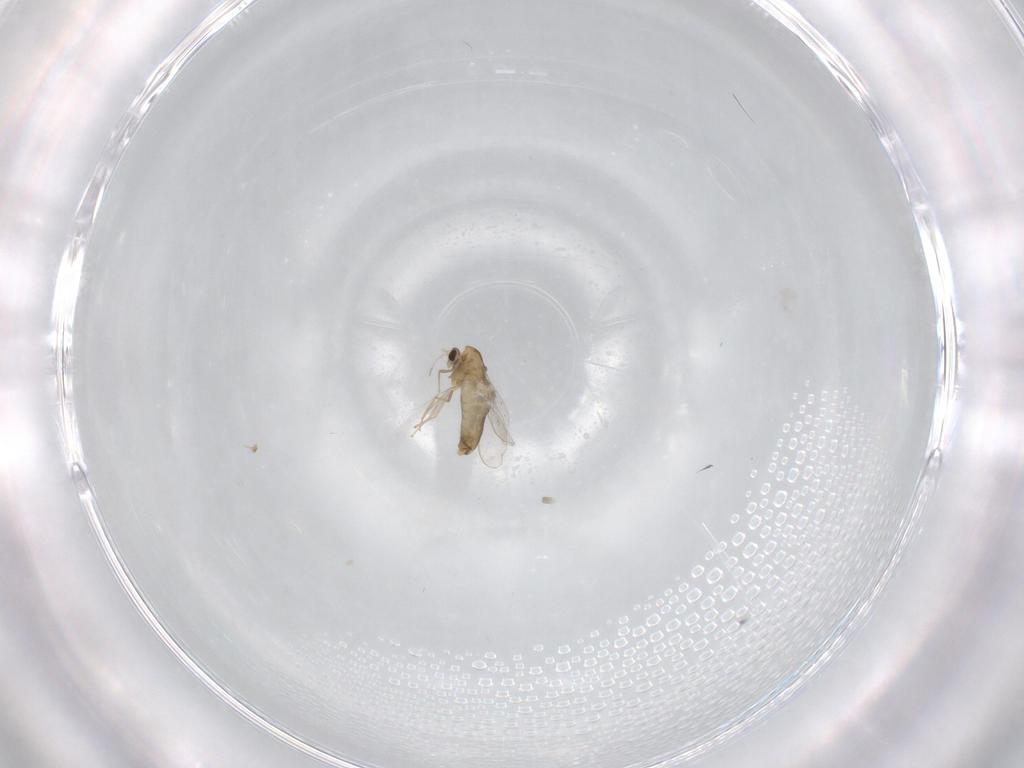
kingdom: Animalia
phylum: Arthropoda
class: Insecta
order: Diptera
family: Chironomidae
